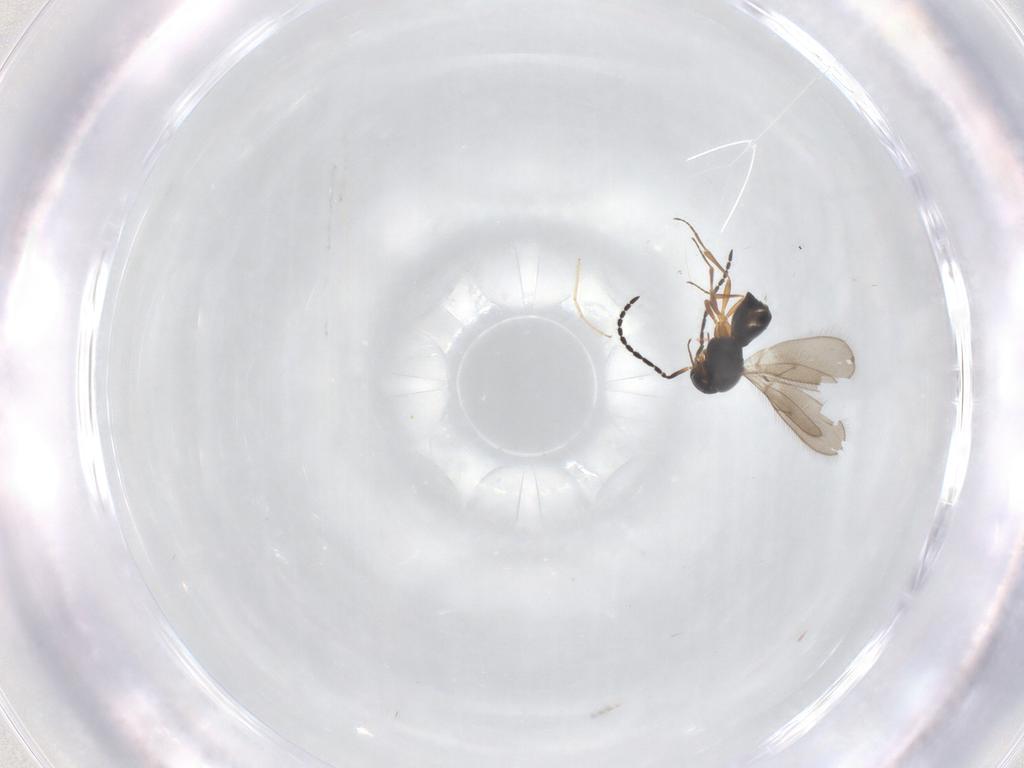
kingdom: Animalia
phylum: Arthropoda
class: Insecta
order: Hymenoptera
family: Scelionidae
